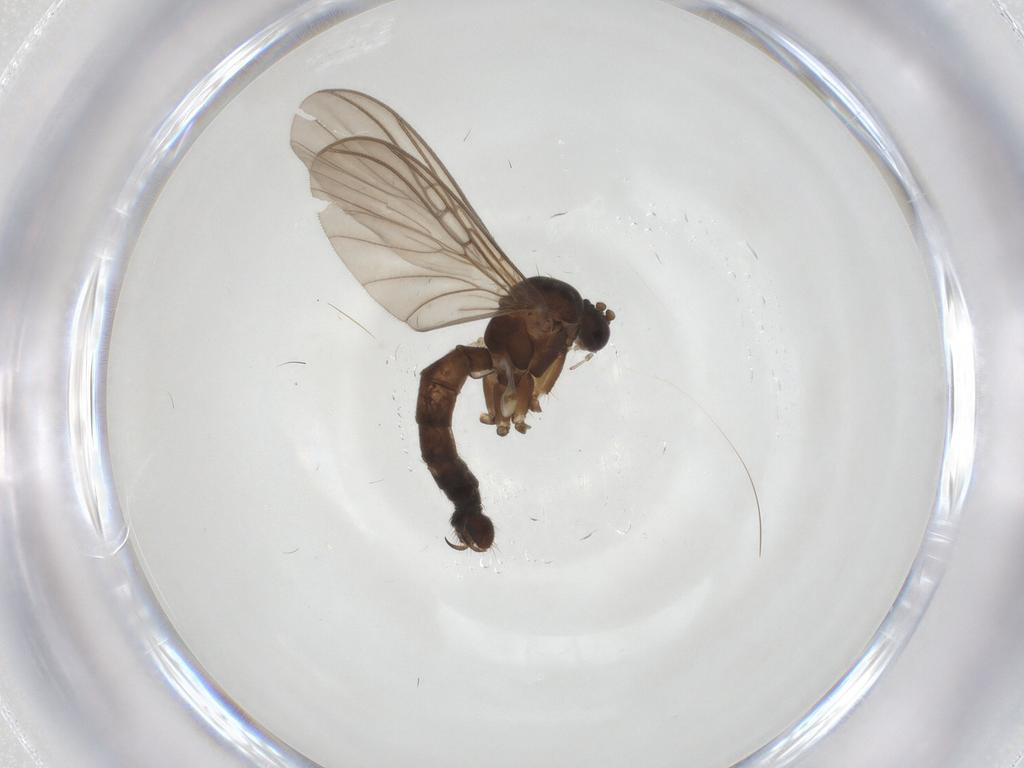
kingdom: Animalia
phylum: Arthropoda
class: Insecta
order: Diptera
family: Mycetophilidae
